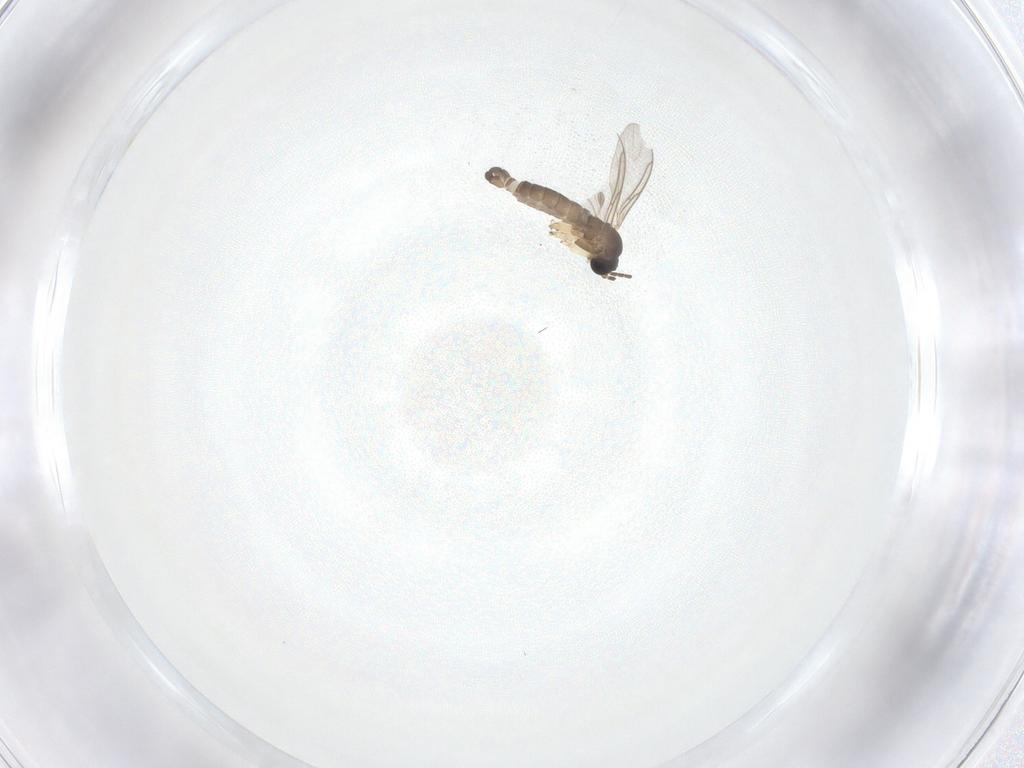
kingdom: Animalia
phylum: Arthropoda
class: Insecta
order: Diptera
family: Sciaridae
